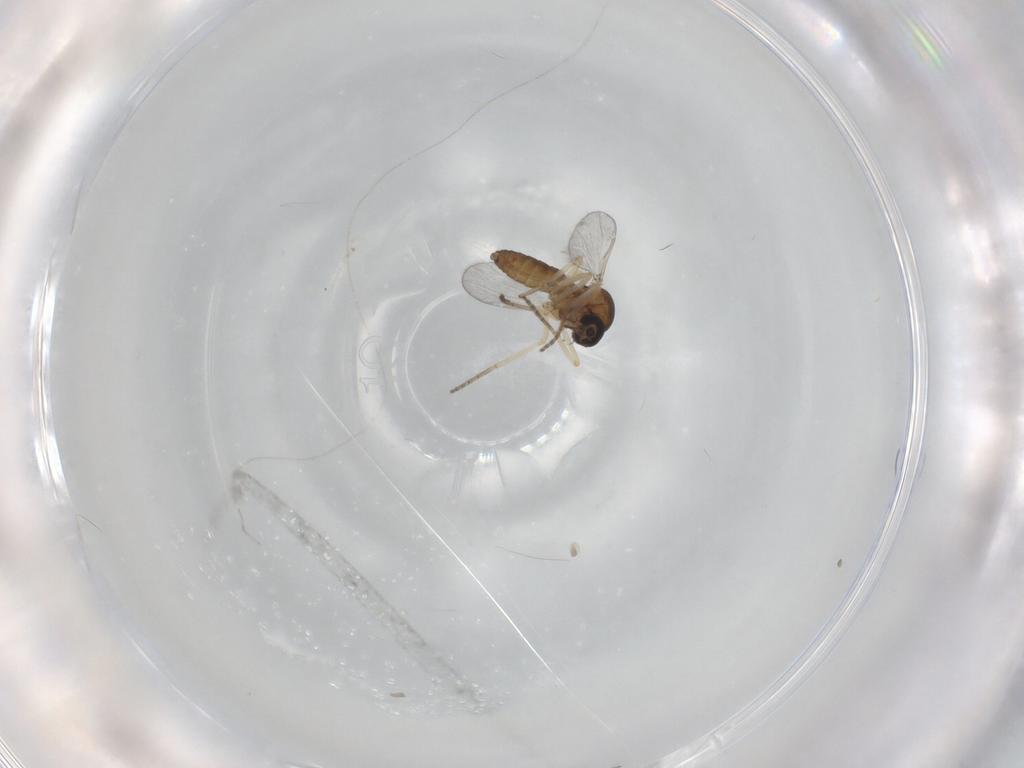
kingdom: Animalia
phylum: Arthropoda
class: Insecta
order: Diptera
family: Ceratopogonidae
